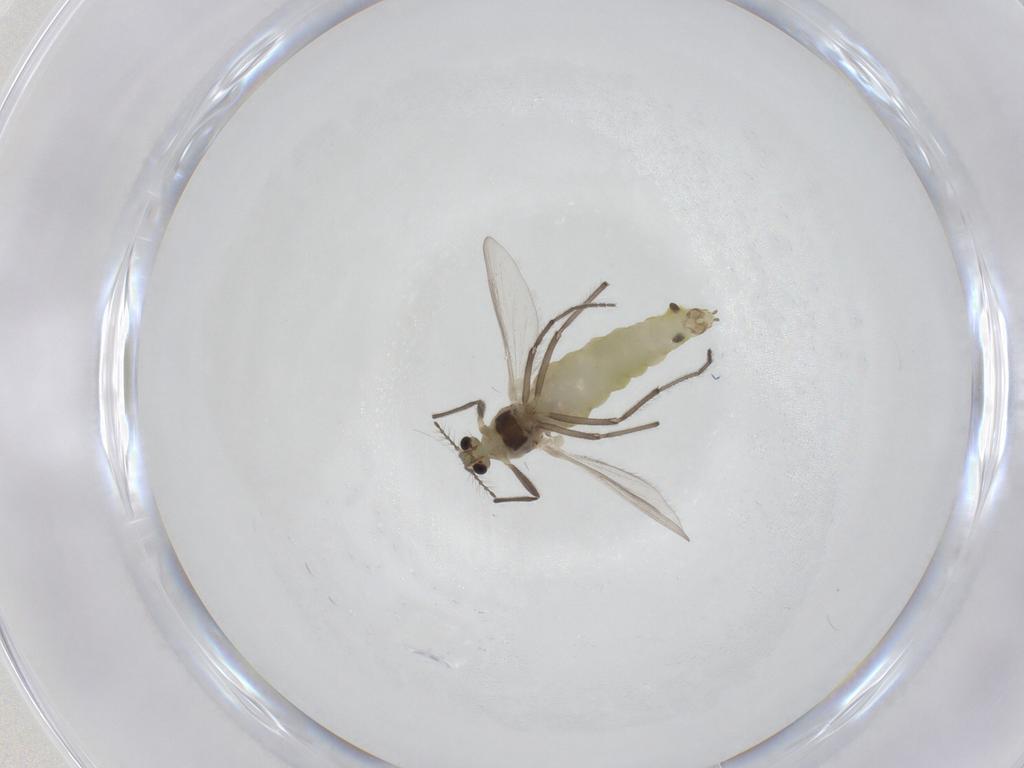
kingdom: Animalia
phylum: Arthropoda
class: Insecta
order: Diptera
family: Chironomidae
